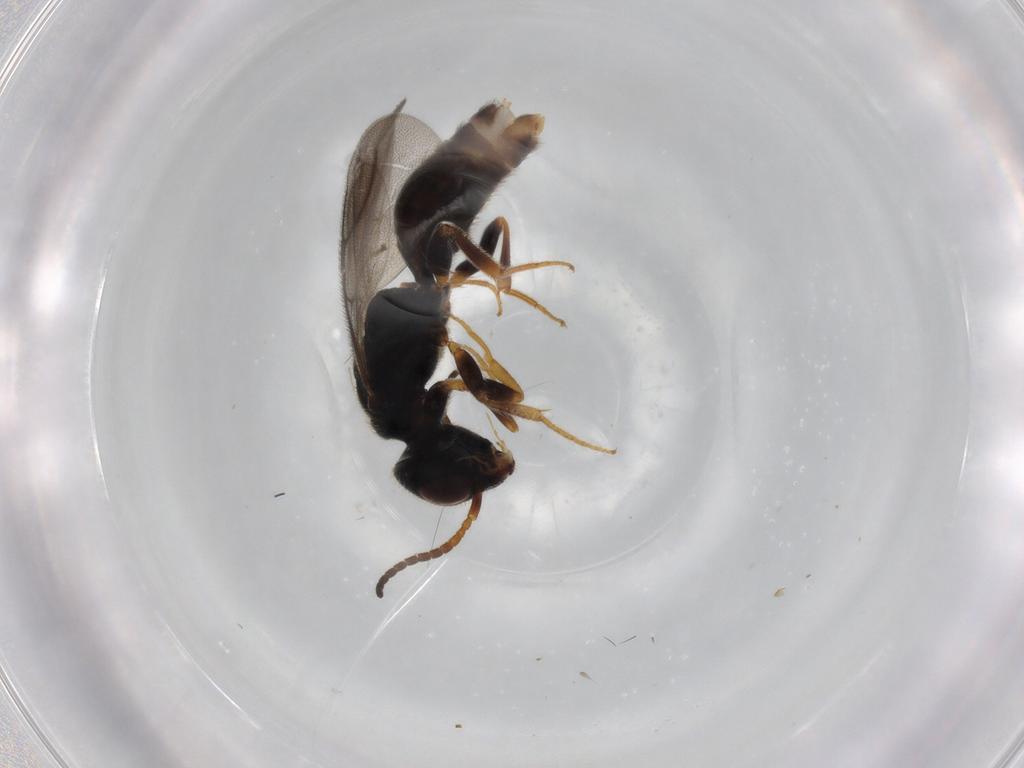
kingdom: Animalia
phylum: Arthropoda
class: Insecta
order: Hymenoptera
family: Bethylidae
